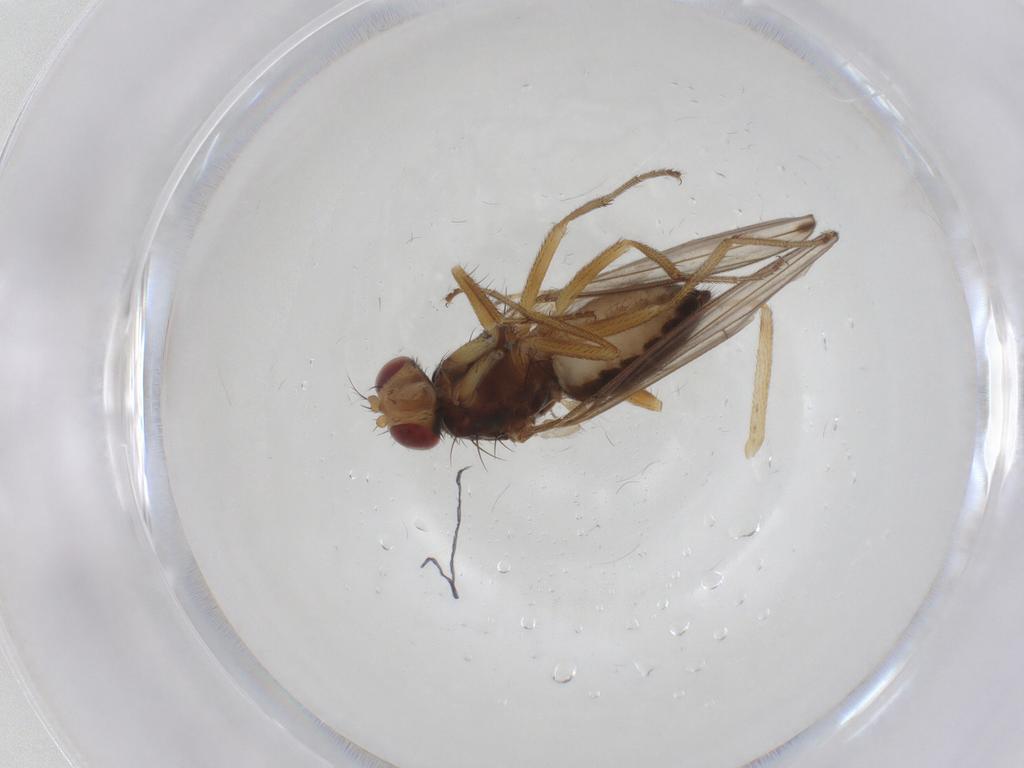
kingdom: Animalia
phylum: Arthropoda
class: Insecta
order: Diptera
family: Drosophilidae
